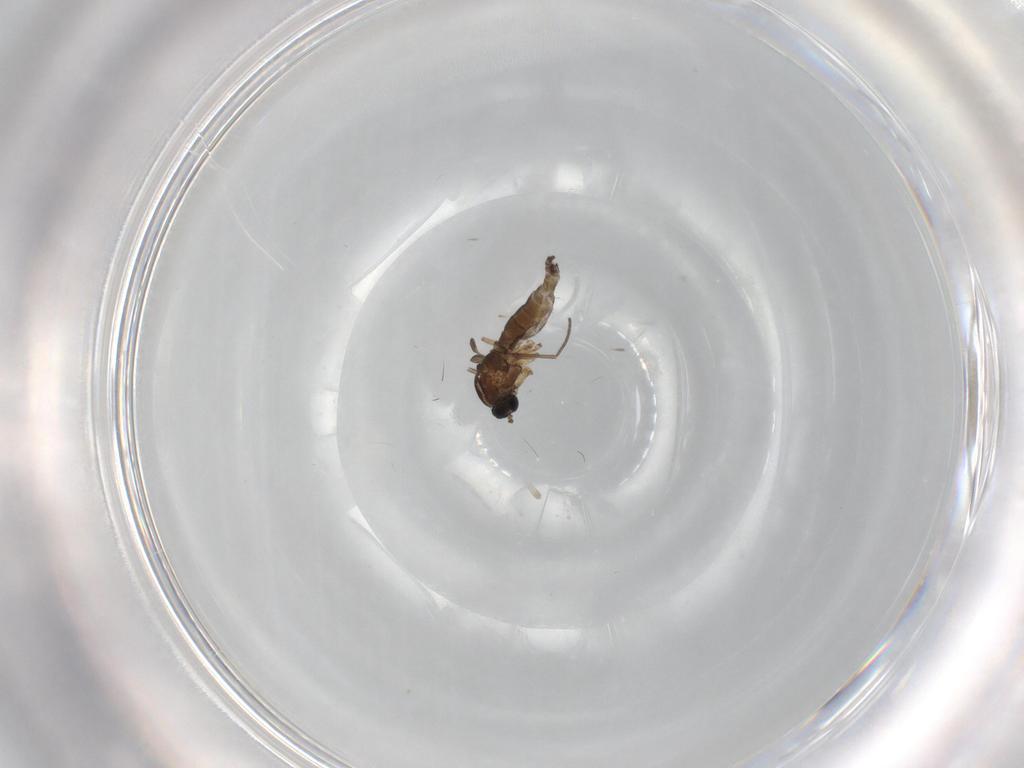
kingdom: Animalia
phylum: Arthropoda
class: Insecta
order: Diptera
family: Sciaridae
